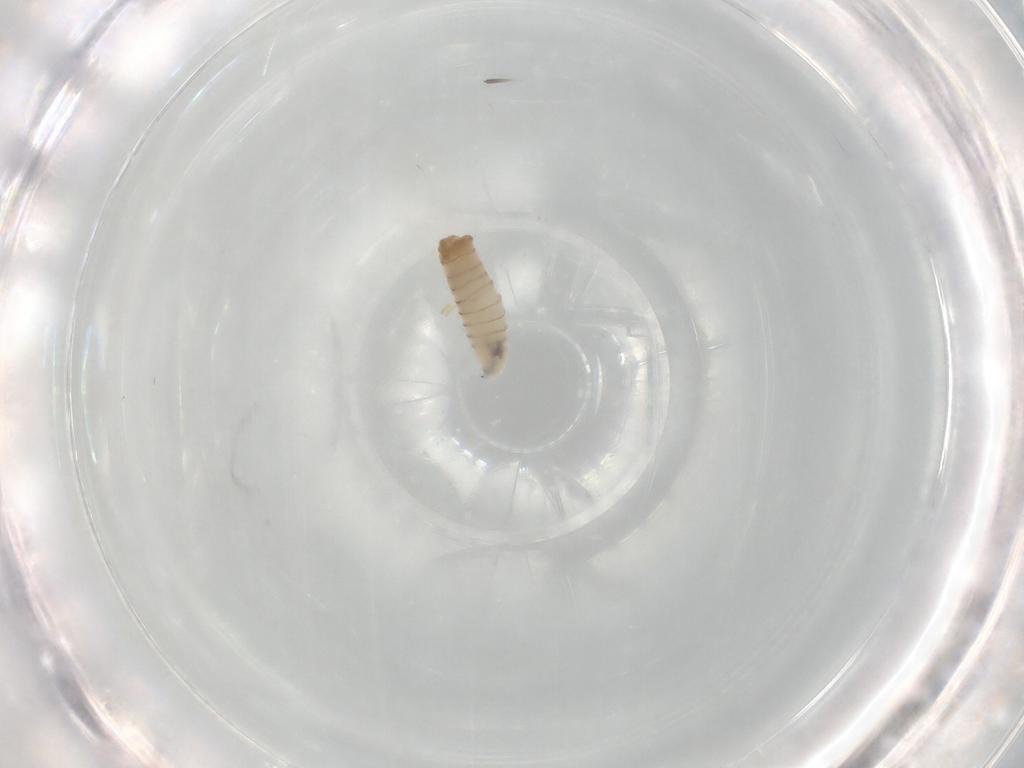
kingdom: Animalia
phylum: Arthropoda
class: Insecta
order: Diptera
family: Sarcophagidae
